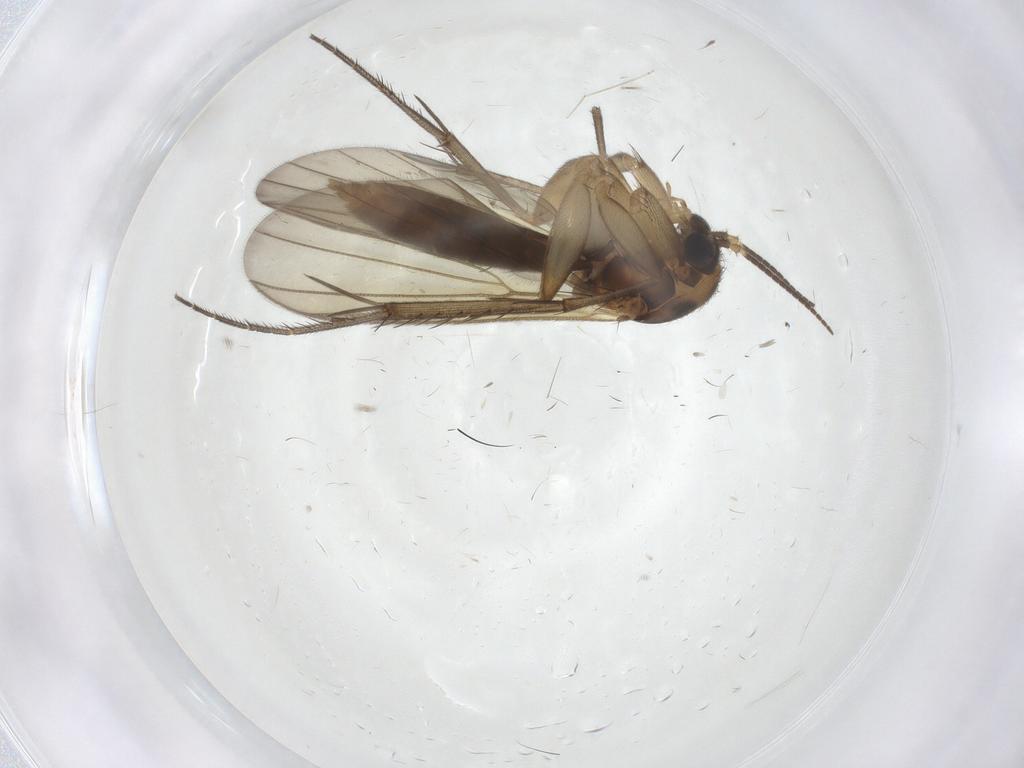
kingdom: Animalia
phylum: Arthropoda
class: Insecta
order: Diptera
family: Mycetophilidae
